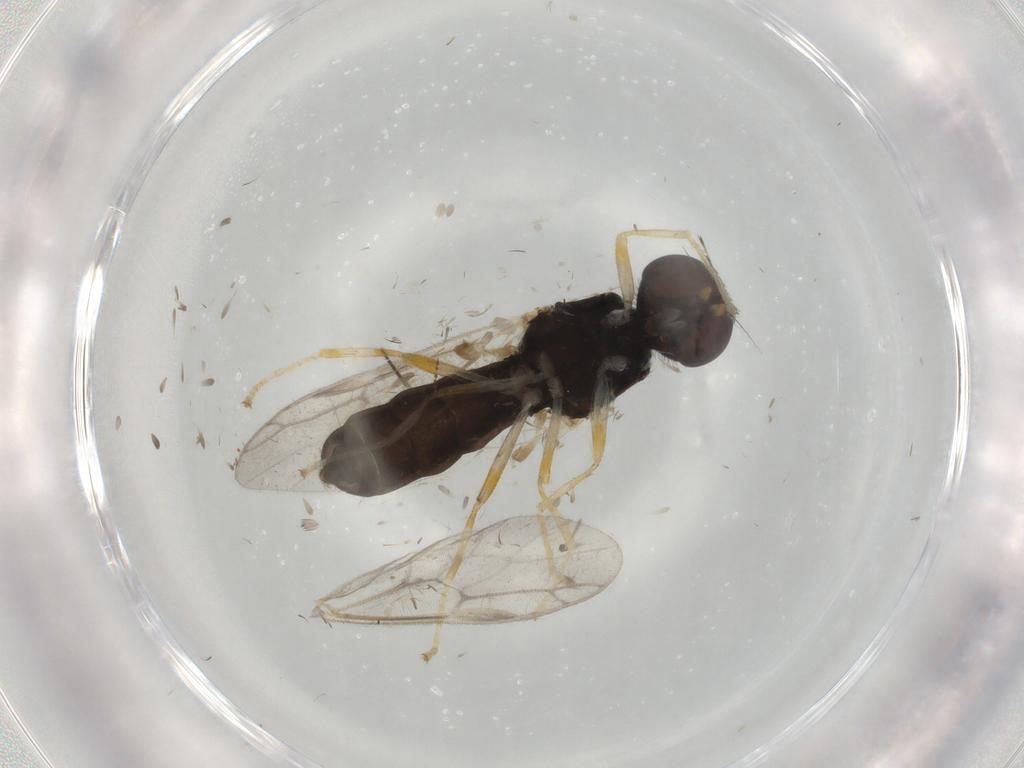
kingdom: Animalia
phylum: Arthropoda
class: Insecta
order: Diptera
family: Stratiomyidae
